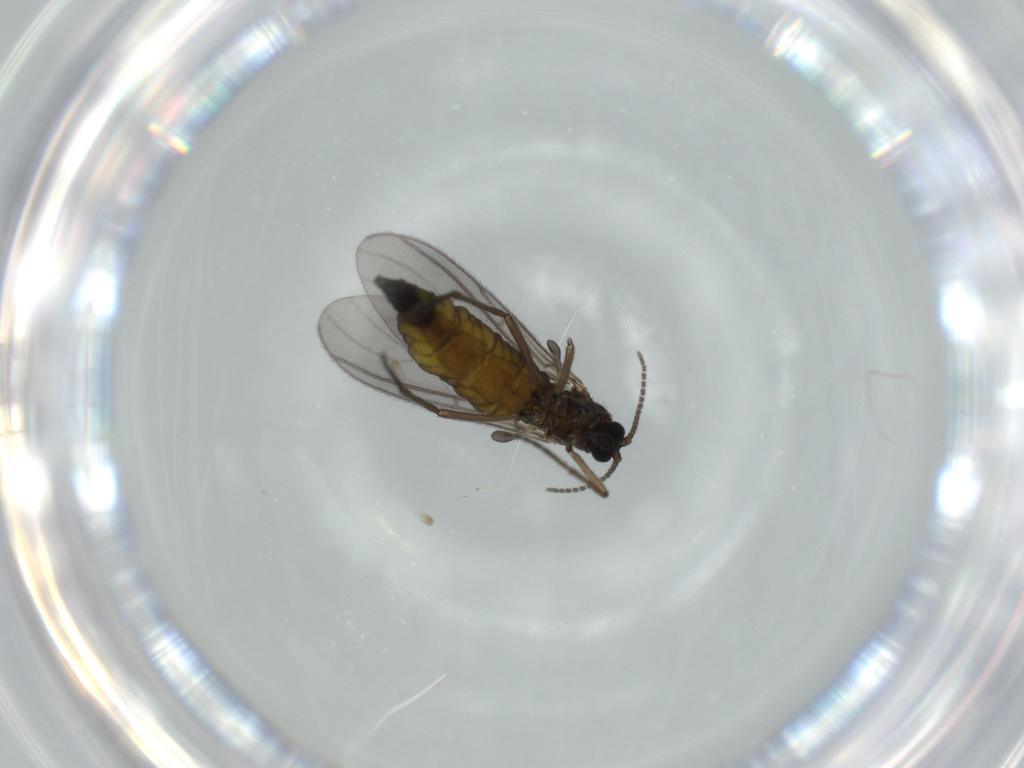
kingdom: Animalia
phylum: Arthropoda
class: Insecta
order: Diptera
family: Sciaridae
